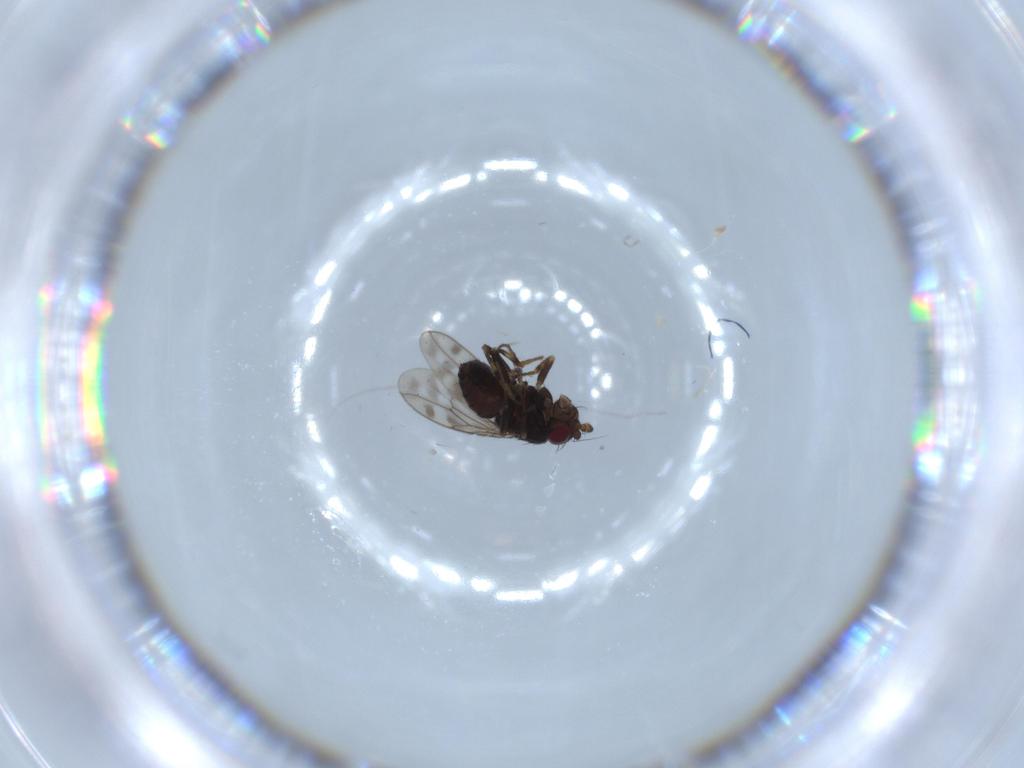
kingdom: Animalia
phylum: Arthropoda
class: Insecta
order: Diptera
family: Sphaeroceridae
